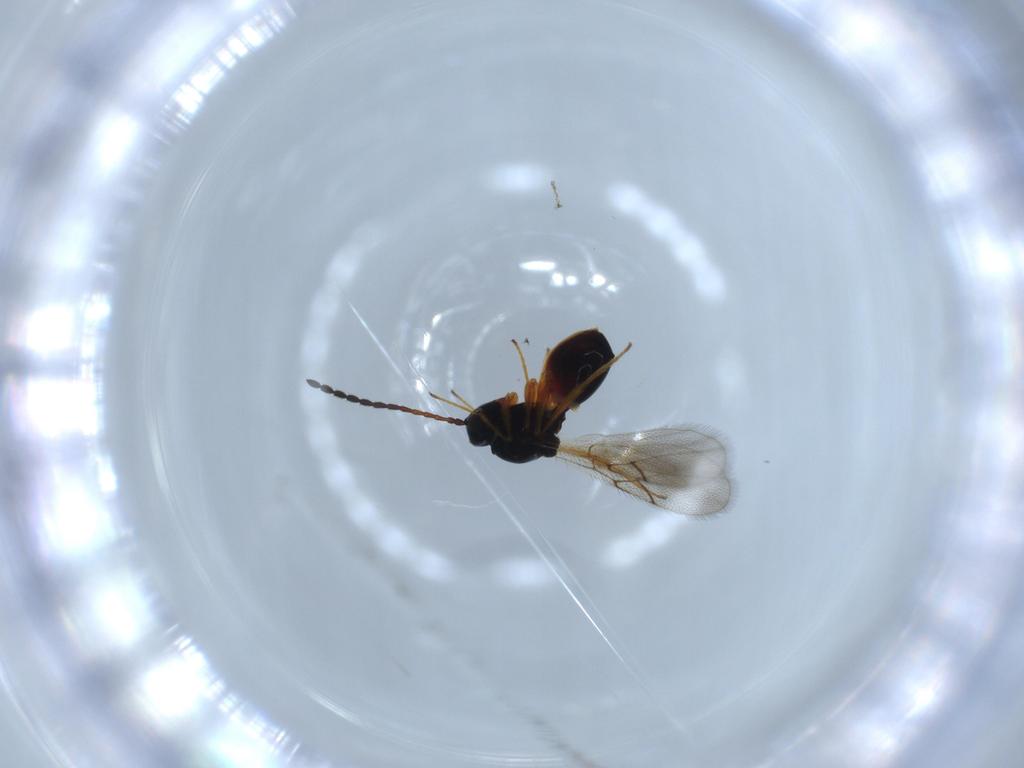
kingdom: Animalia
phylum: Arthropoda
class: Insecta
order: Hymenoptera
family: Figitidae
